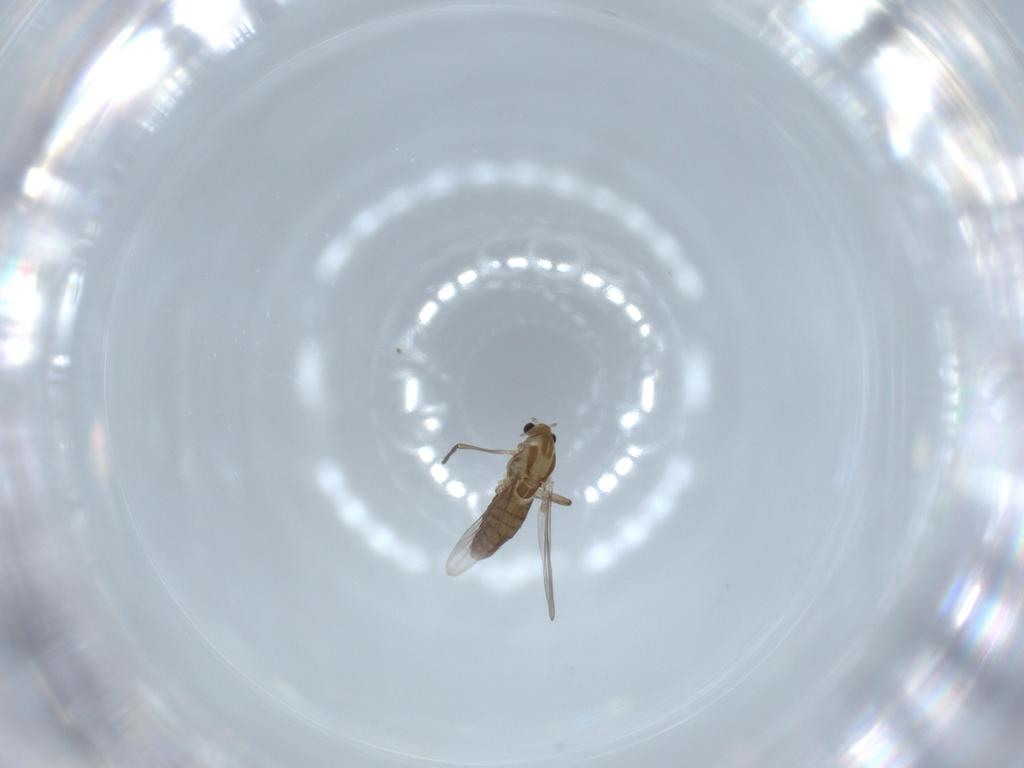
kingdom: Animalia
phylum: Arthropoda
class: Insecta
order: Diptera
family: Chironomidae
